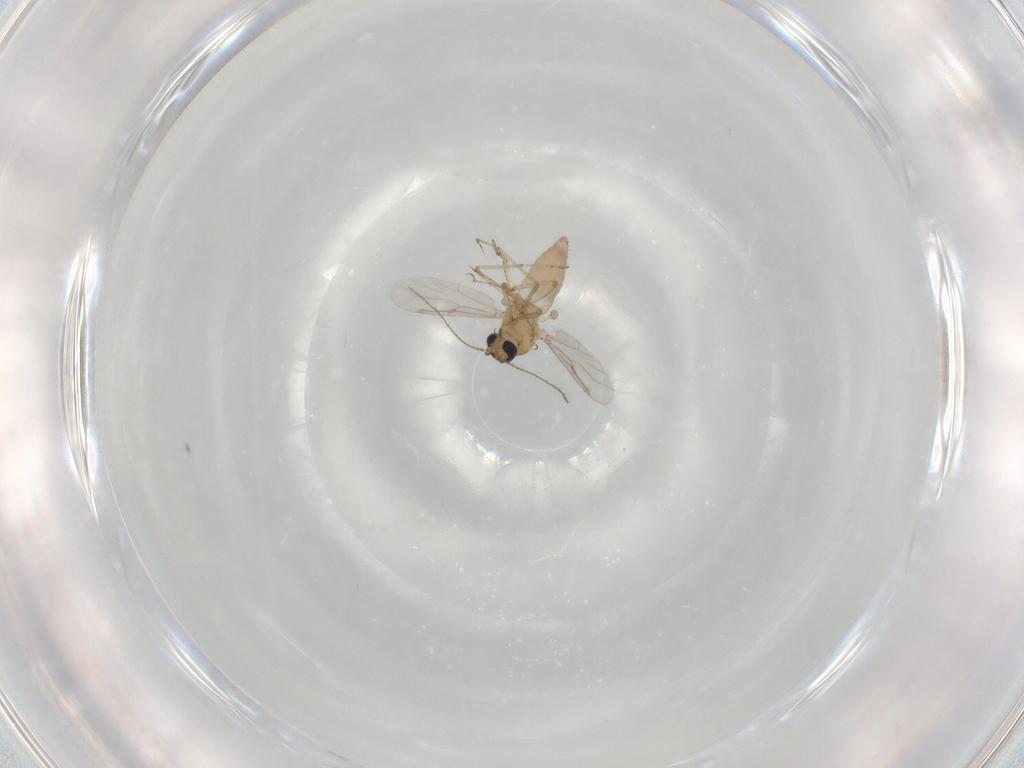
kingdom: Animalia
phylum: Arthropoda
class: Insecta
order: Diptera
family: Ceratopogonidae
